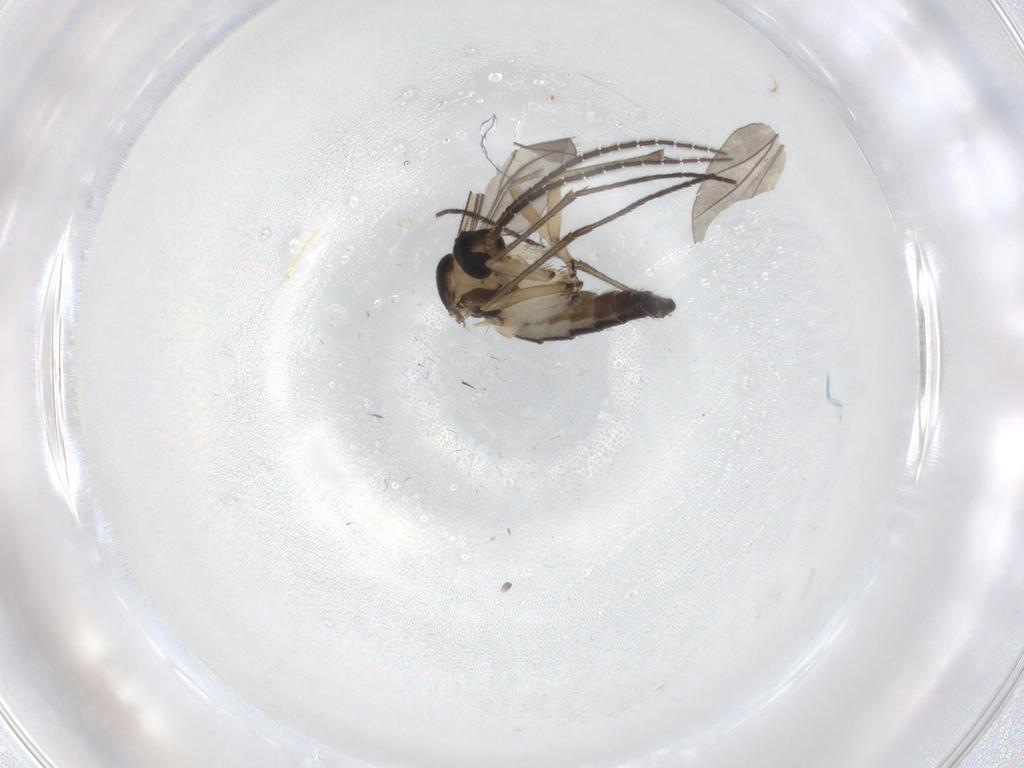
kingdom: Animalia
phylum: Arthropoda
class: Insecta
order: Diptera
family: Sciaridae
